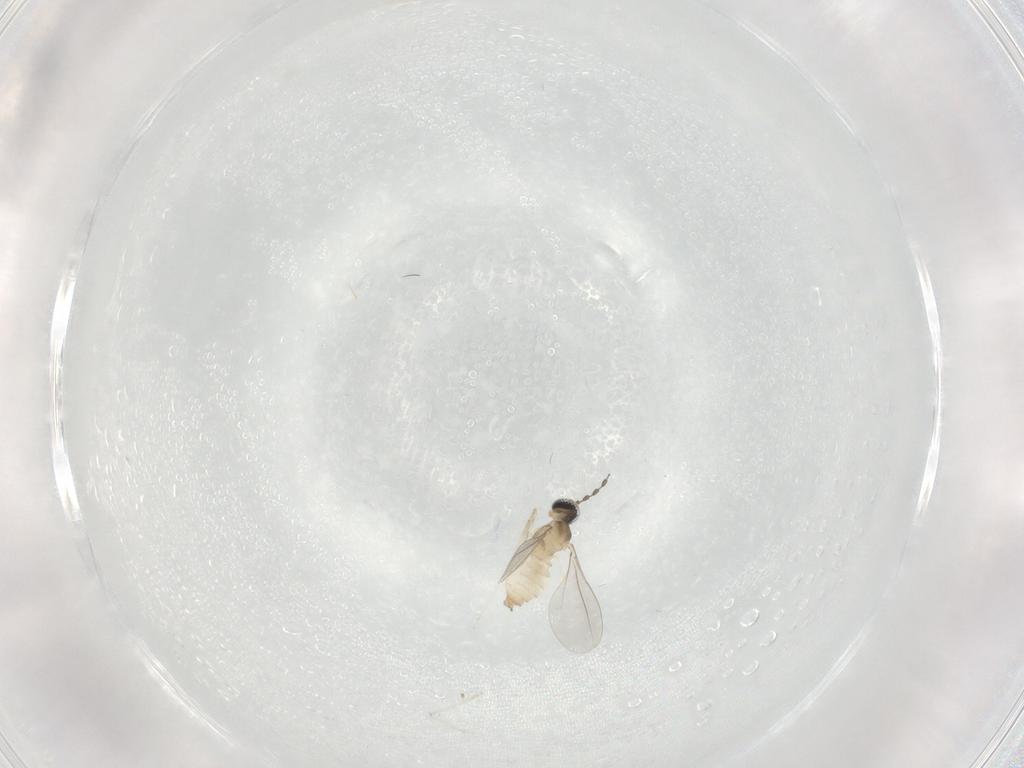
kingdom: Animalia
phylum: Arthropoda
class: Insecta
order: Diptera
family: Cecidomyiidae
